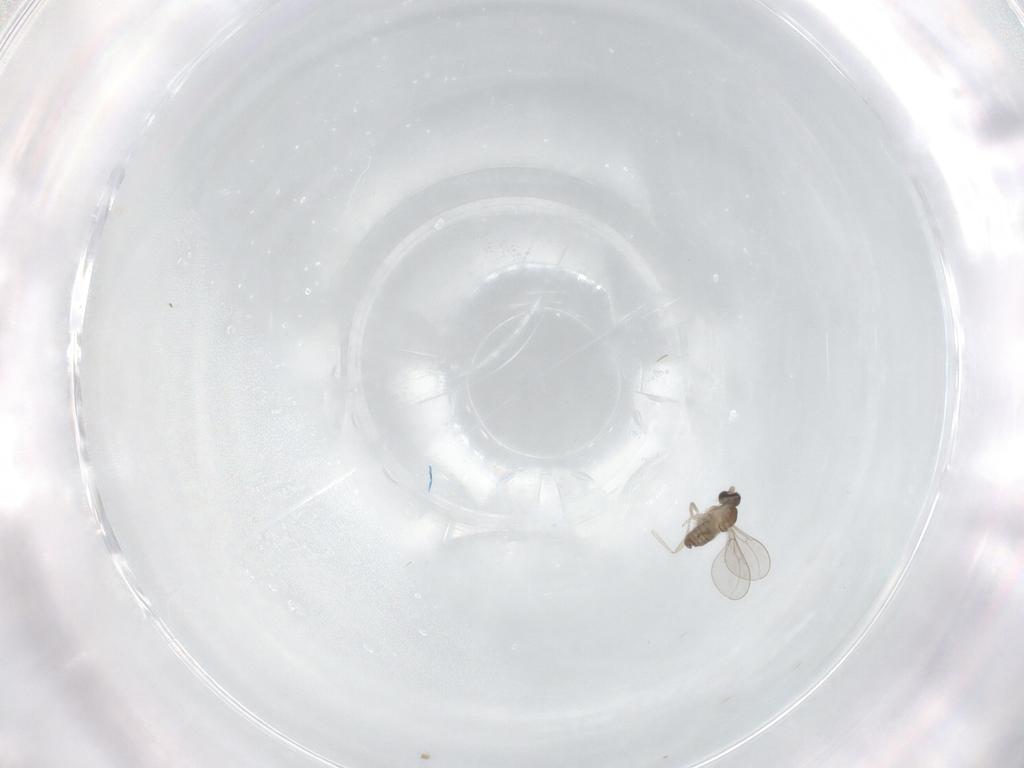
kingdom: Animalia
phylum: Arthropoda
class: Insecta
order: Diptera
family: Cecidomyiidae
